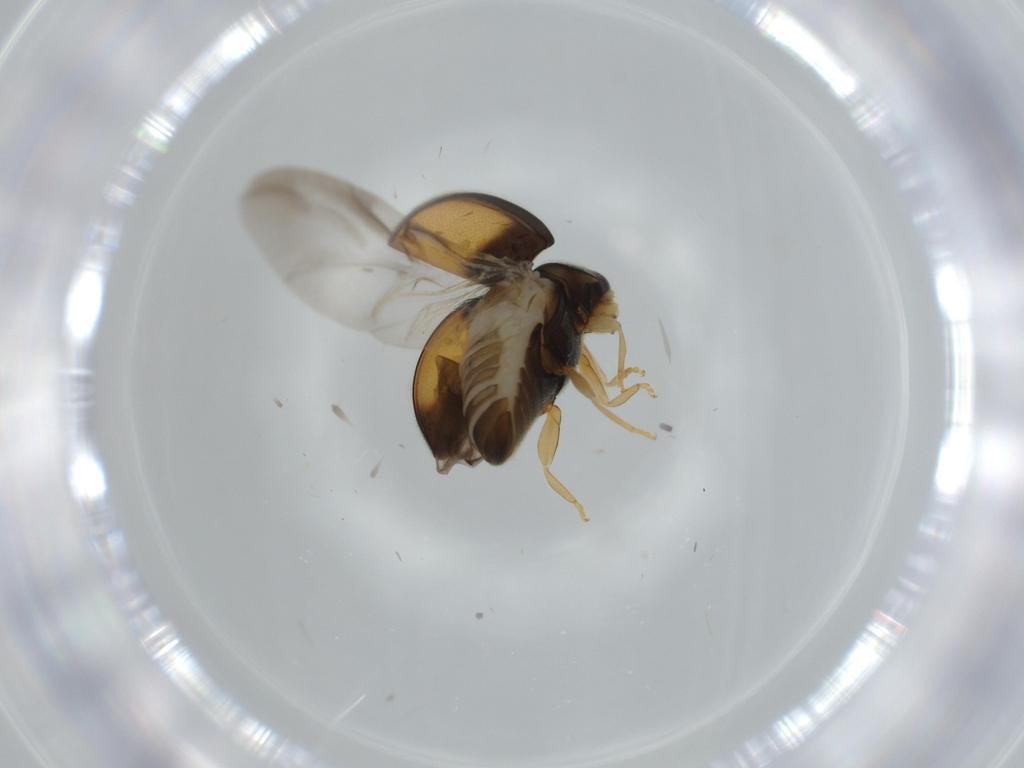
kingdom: Animalia
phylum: Arthropoda
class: Insecta
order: Coleoptera
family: Coccinellidae
